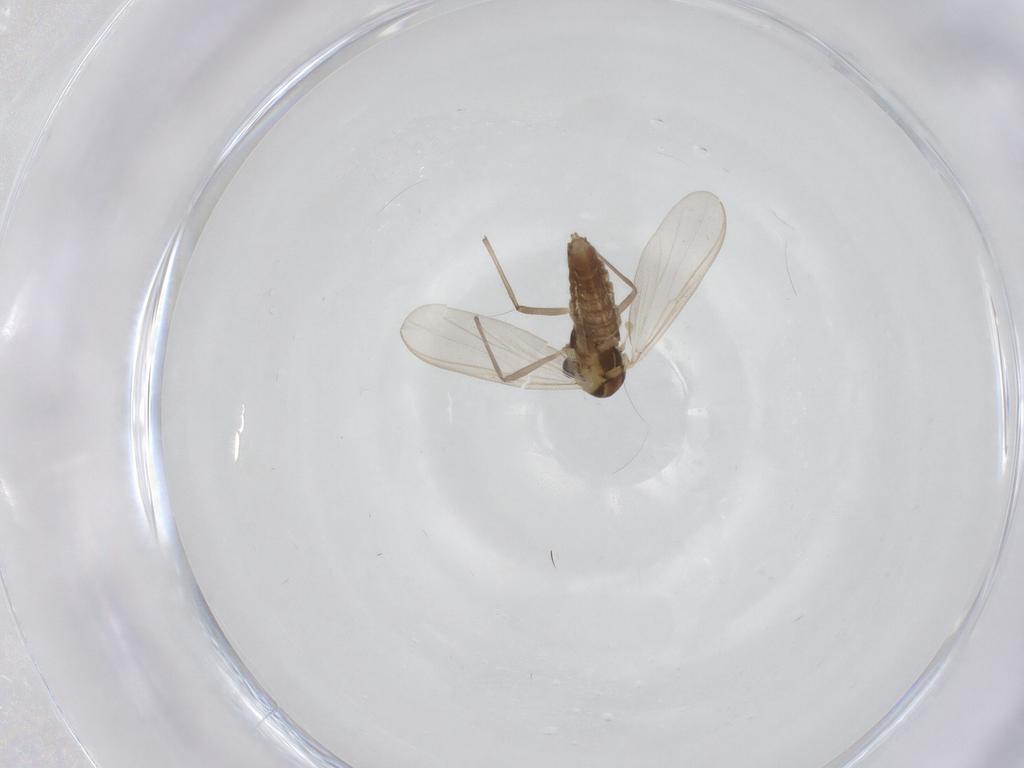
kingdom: Animalia
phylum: Arthropoda
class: Insecta
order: Diptera
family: Chironomidae
